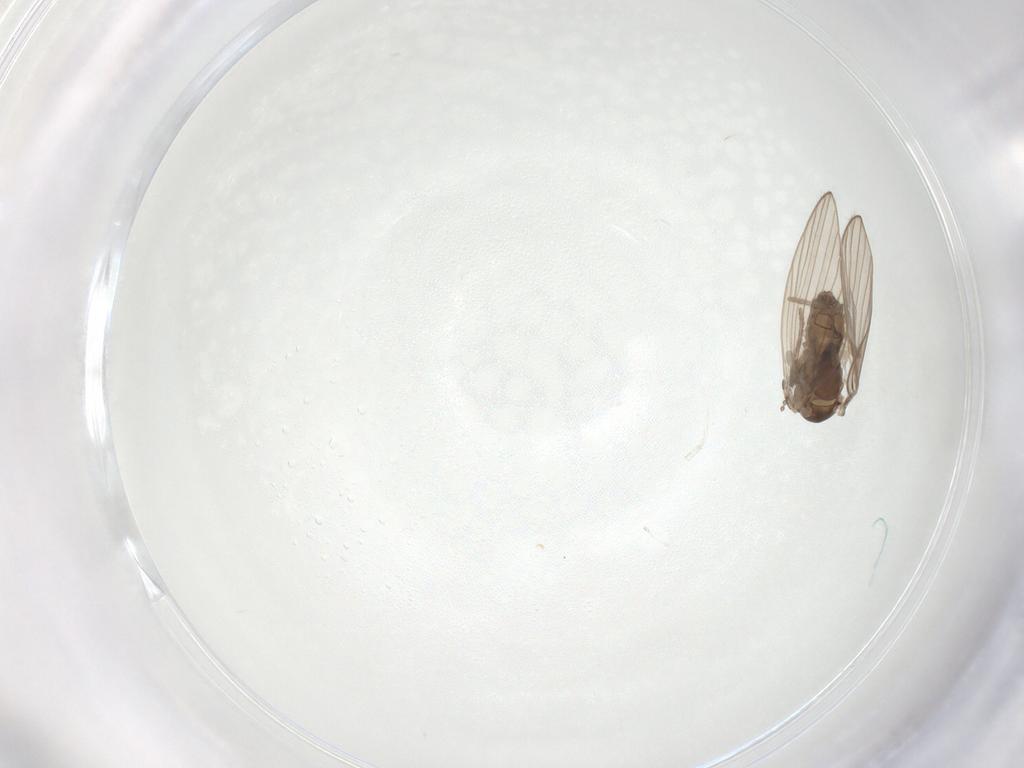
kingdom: Animalia
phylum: Arthropoda
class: Insecta
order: Diptera
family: Psychodidae
